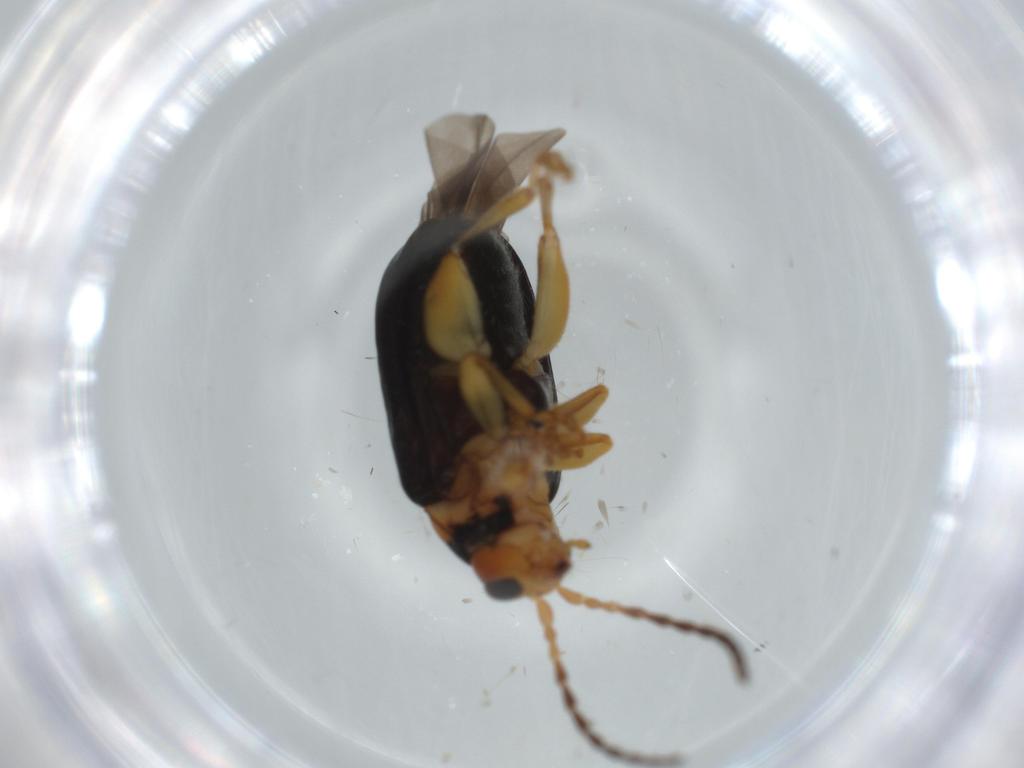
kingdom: Animalia
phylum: Arthropoda
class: Insecta
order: Coleoptera
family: Chrysomelidae
